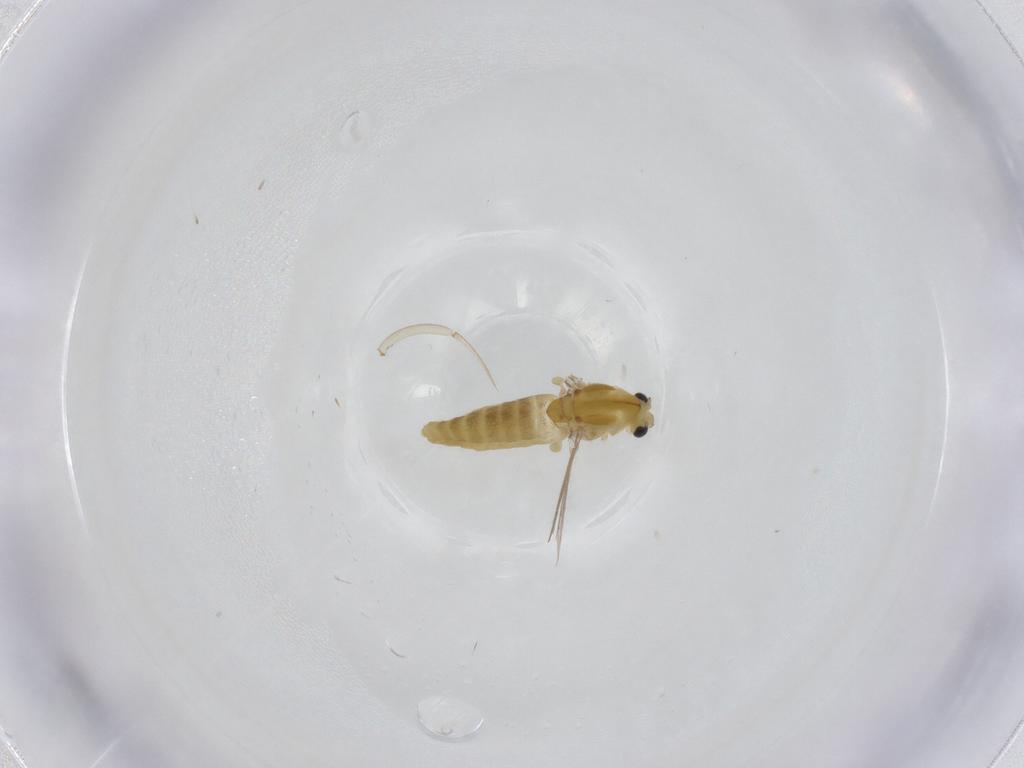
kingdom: Animalia
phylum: Arthropoda
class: Insecta
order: Diptera
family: Chironomidae
